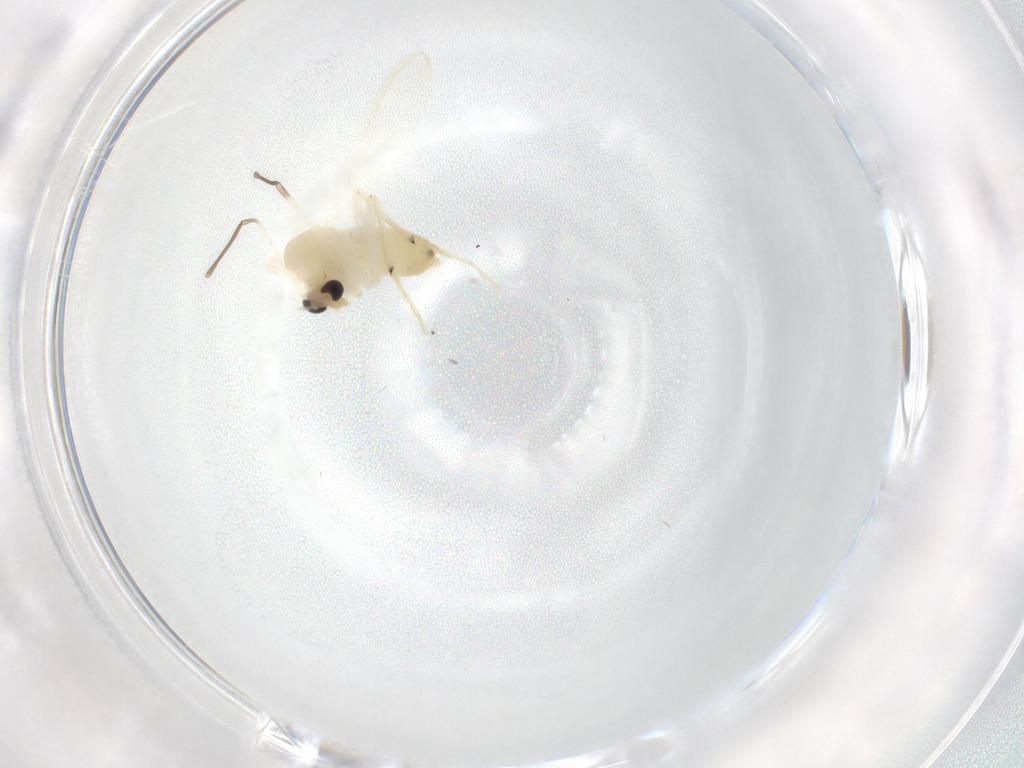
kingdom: Animalia
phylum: Arthropoda
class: Insecta
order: Diptera
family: Chironomidae
